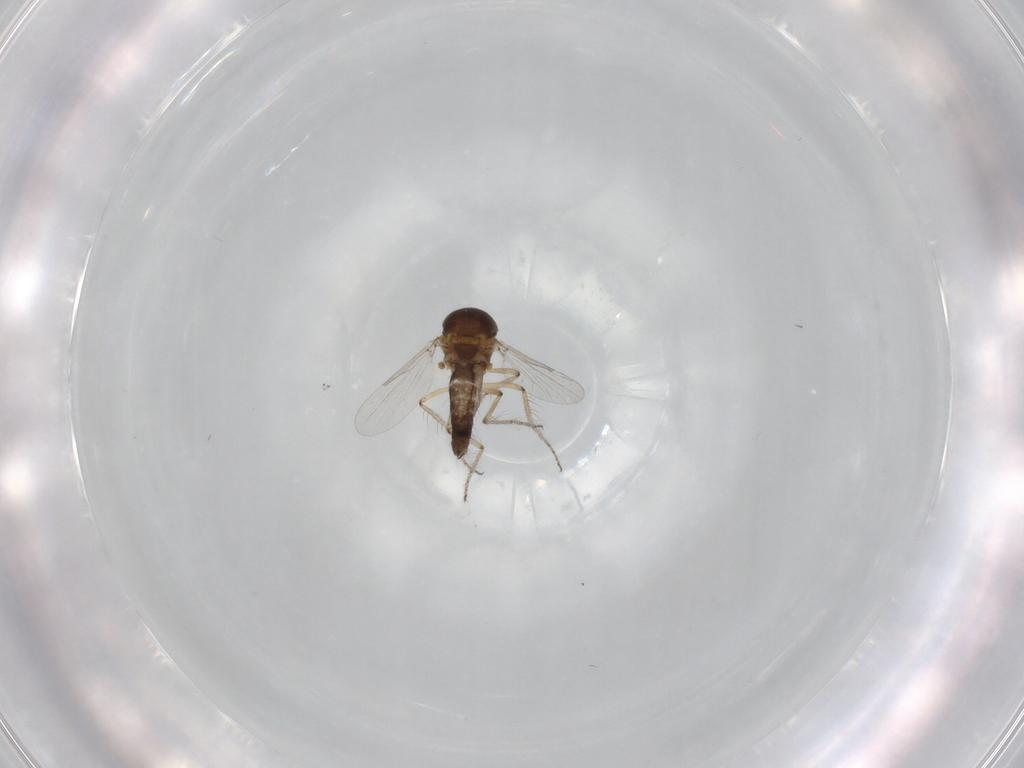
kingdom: Animalia
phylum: Arthropoda
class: Insecta
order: Diptera
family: Ceratopogonidae
